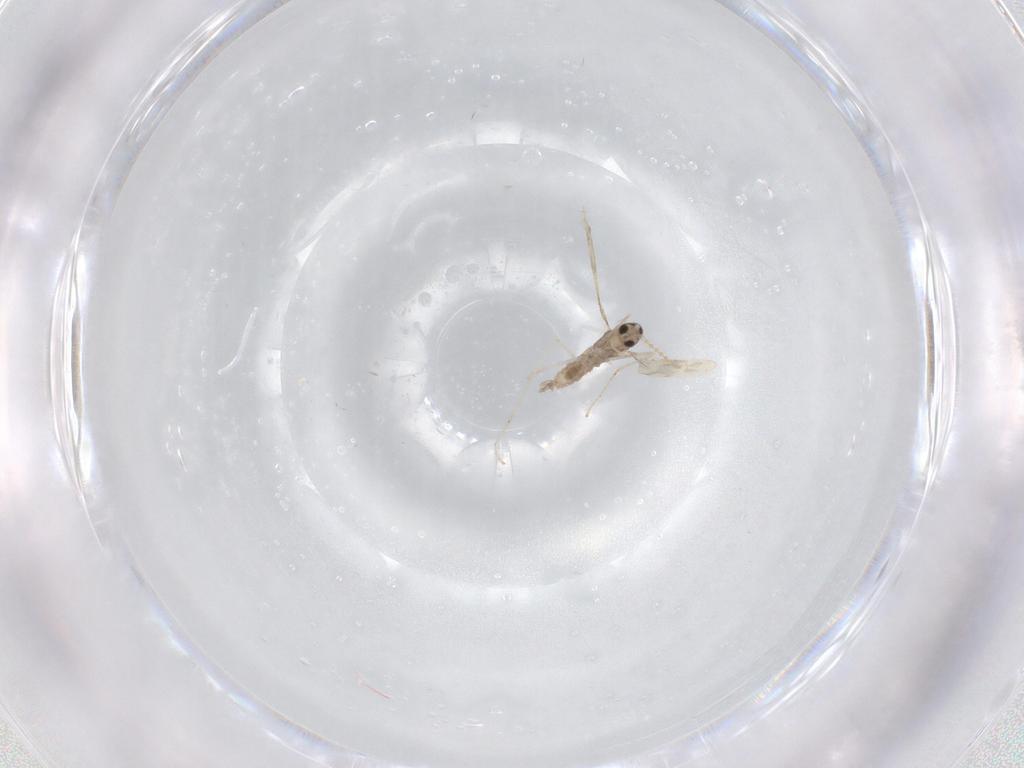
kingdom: Animalia
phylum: Arthropoda
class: Insecta
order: Diptera
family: Cecidomyiidae
